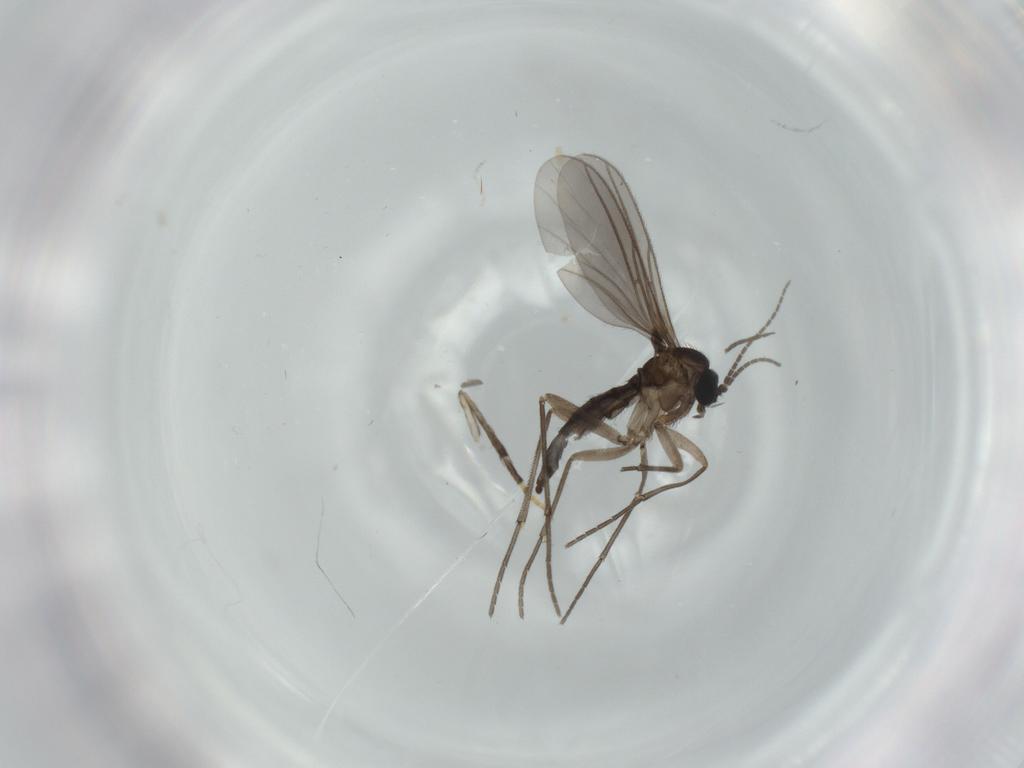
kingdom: Animalia
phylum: Arthropoda
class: Insecta
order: Diptera
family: Sciaridae
